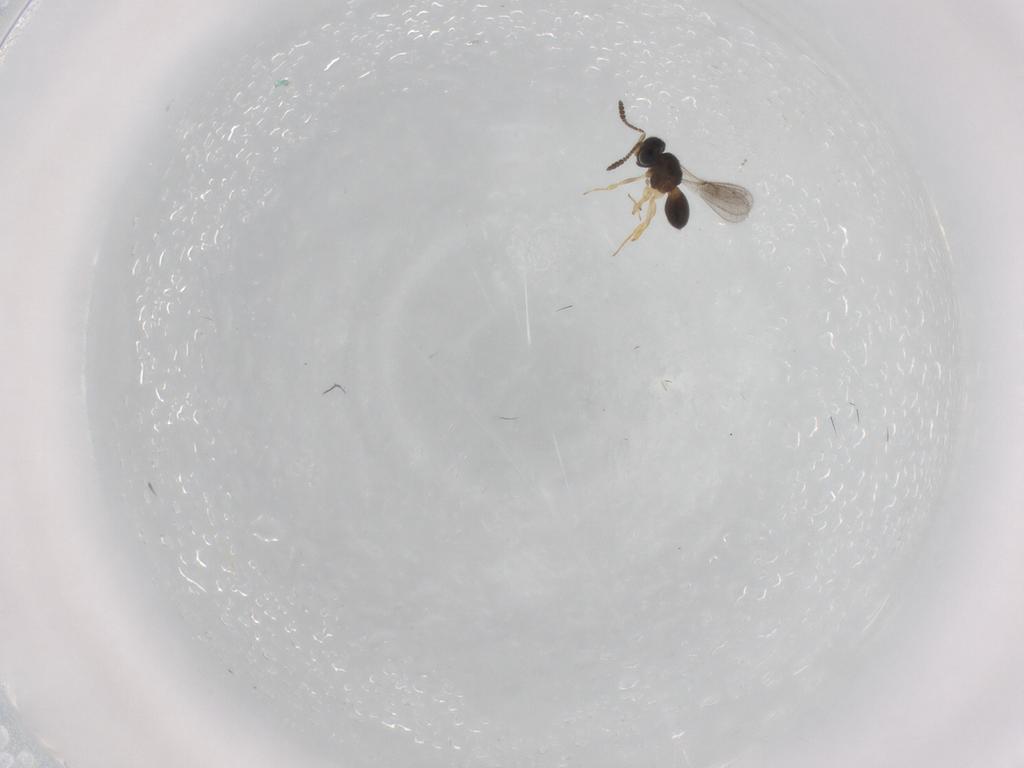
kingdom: Animalia
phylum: Arthropoda
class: Insecta
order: Hymenoptera
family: Scelionidae
